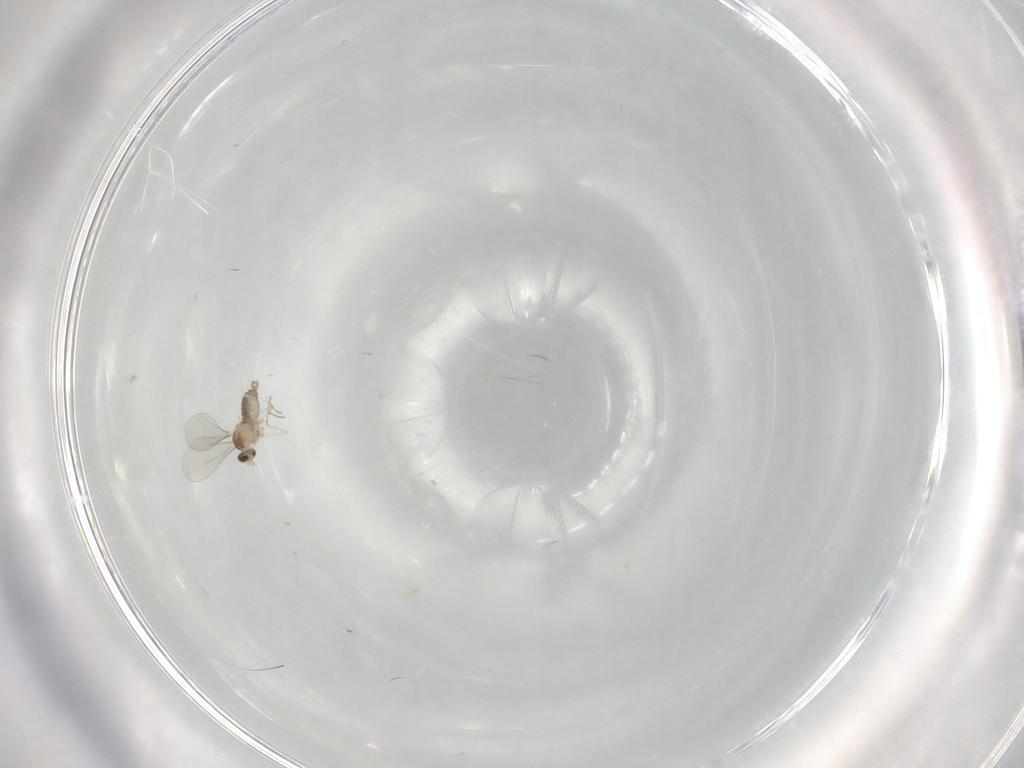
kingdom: Animalia
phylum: Arthropoda
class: Insecta
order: Diptera
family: Cecidomyiidae
